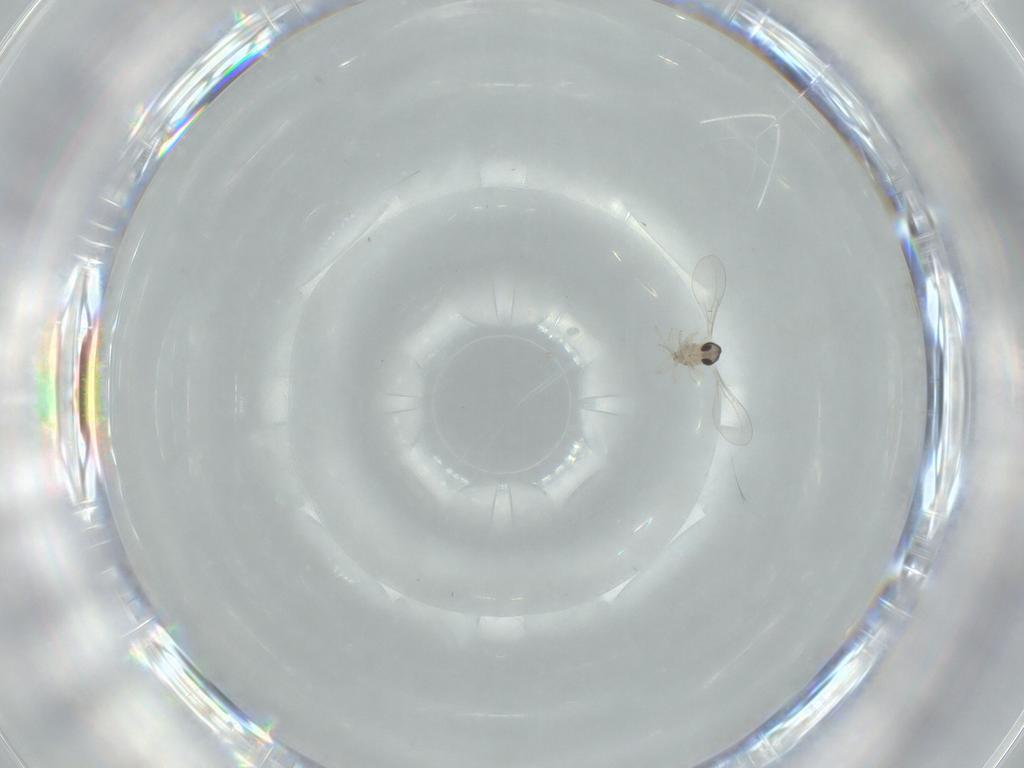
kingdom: Animalia
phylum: Arthropoda
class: Insecta
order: Diptera
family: Cecidomyiidae
